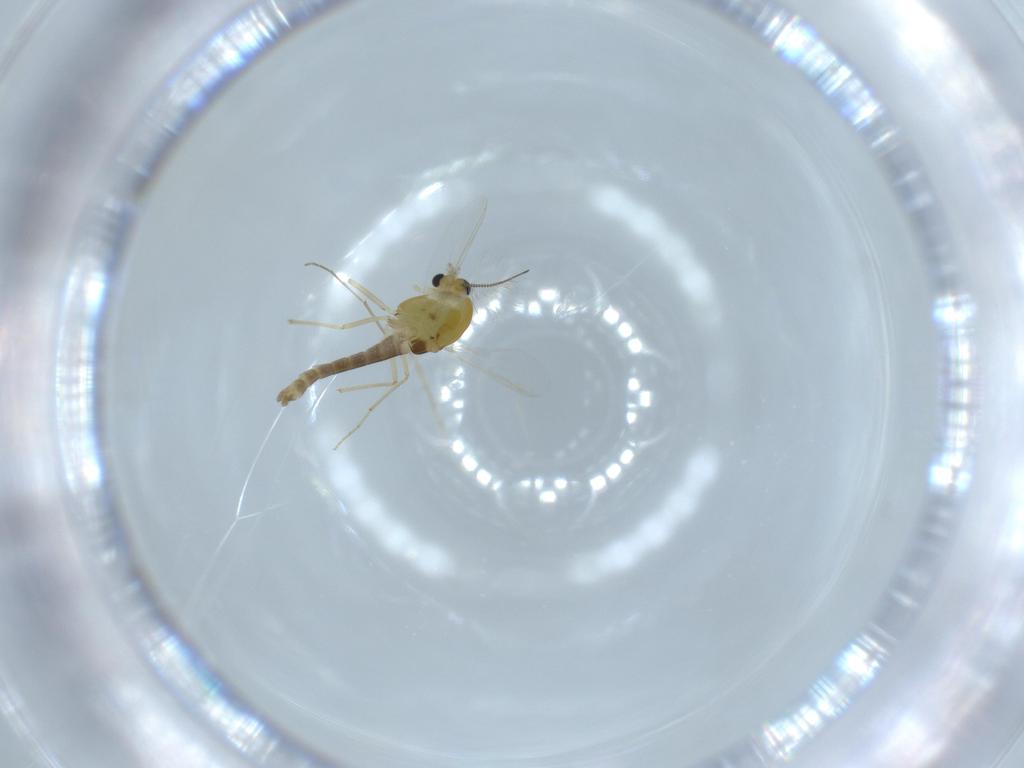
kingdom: Animalia
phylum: Arthropoda
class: Insecta
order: Diptera
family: Chironomidae
